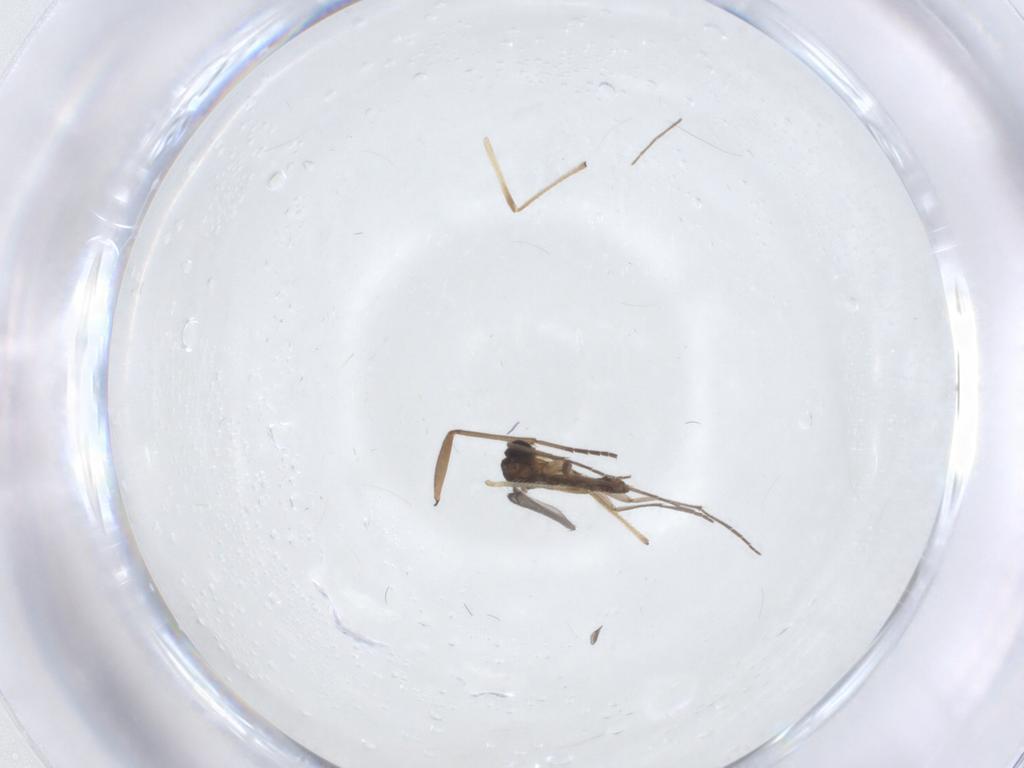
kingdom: Animalia
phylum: Arthropoda
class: Insecta
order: Diptera
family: Sciaridae
